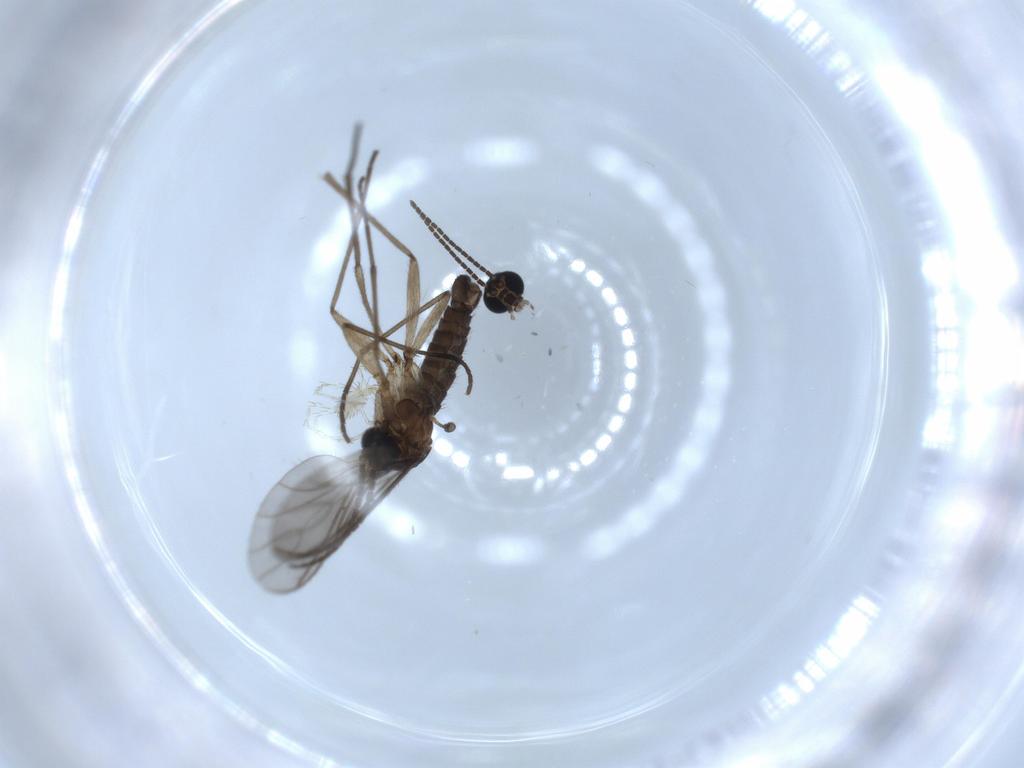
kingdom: Animalia
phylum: Arthropoda
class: Insecta
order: Diptera
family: Sciaridae
